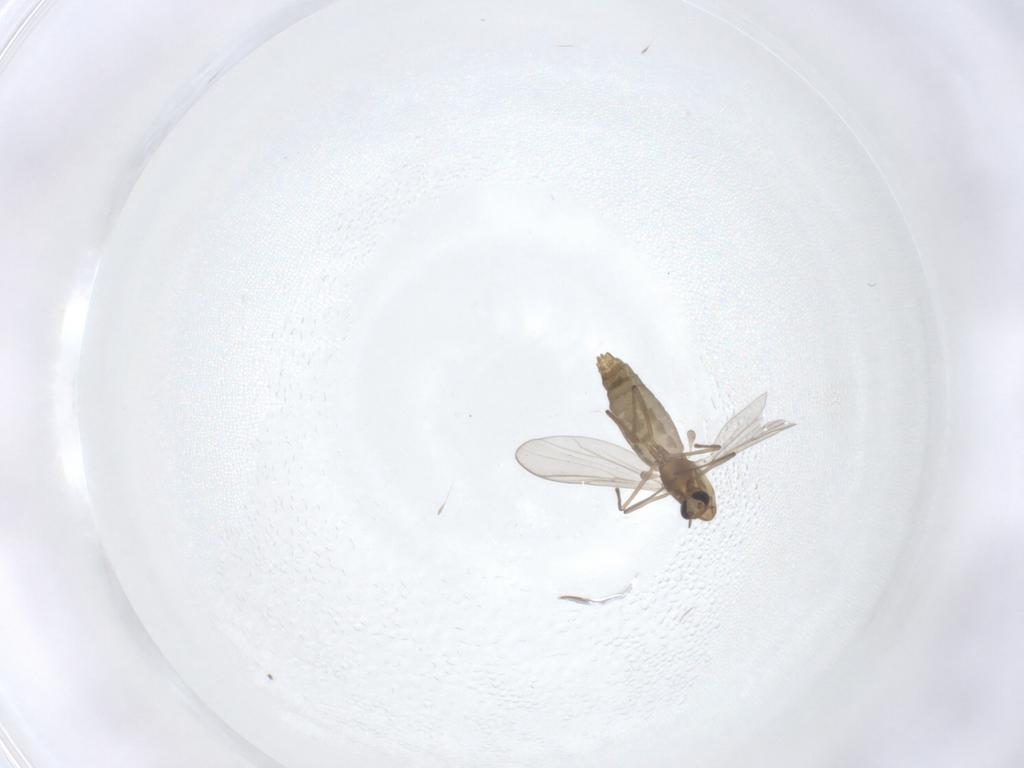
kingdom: Animalia
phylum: Arthropoda
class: Insecta
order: Diptera
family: Chironomidae
